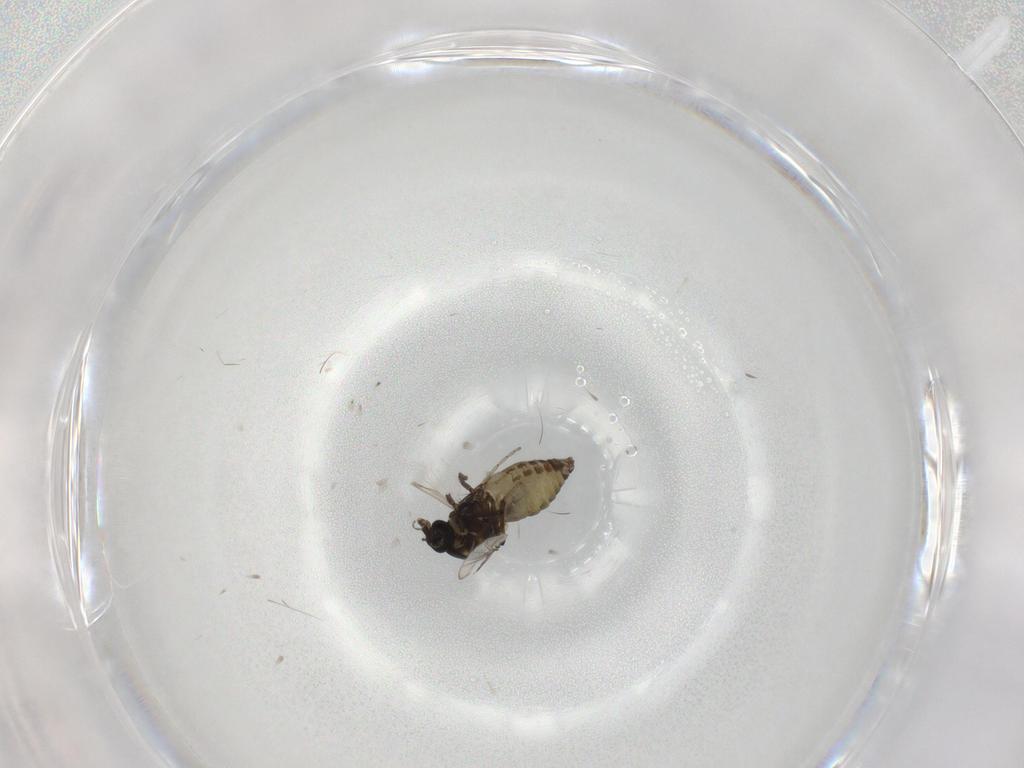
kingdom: Animalia
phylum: Arthropoda
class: Insecta
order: Diptera
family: Ceratopogonidae
